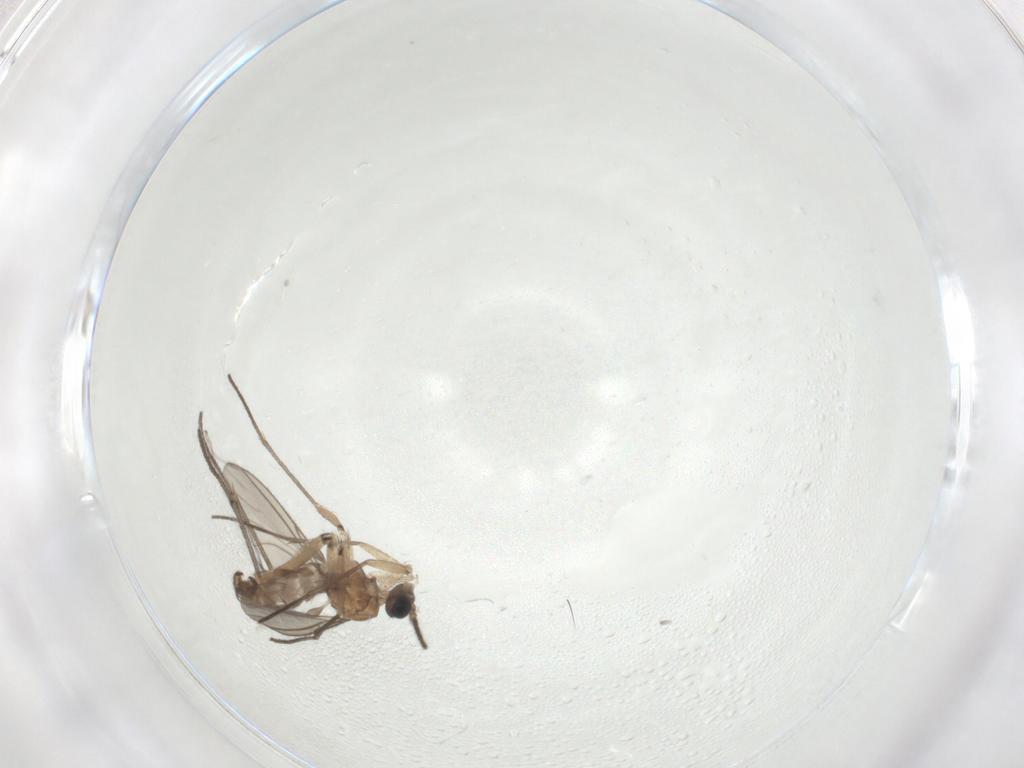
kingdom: Animalia
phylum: Arthropoda
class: Insecta
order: Diptera
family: Sciaridae
